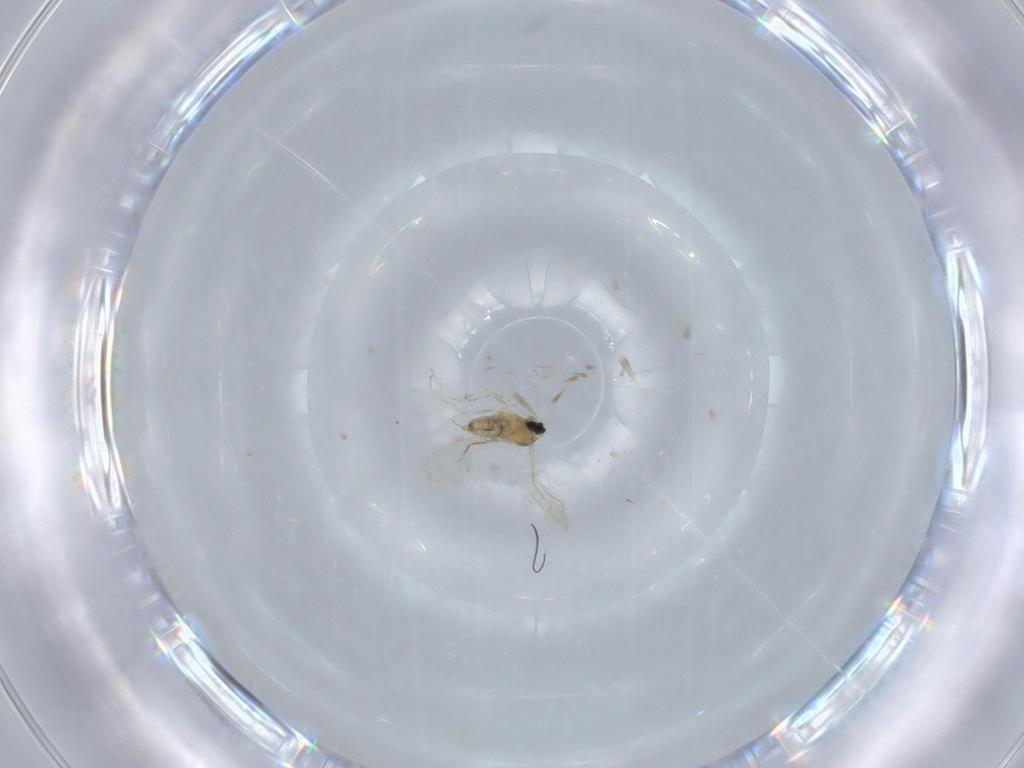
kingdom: Animalia
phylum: Arthropoda
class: Insecta
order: Diptera
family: Cecidomyiidae
